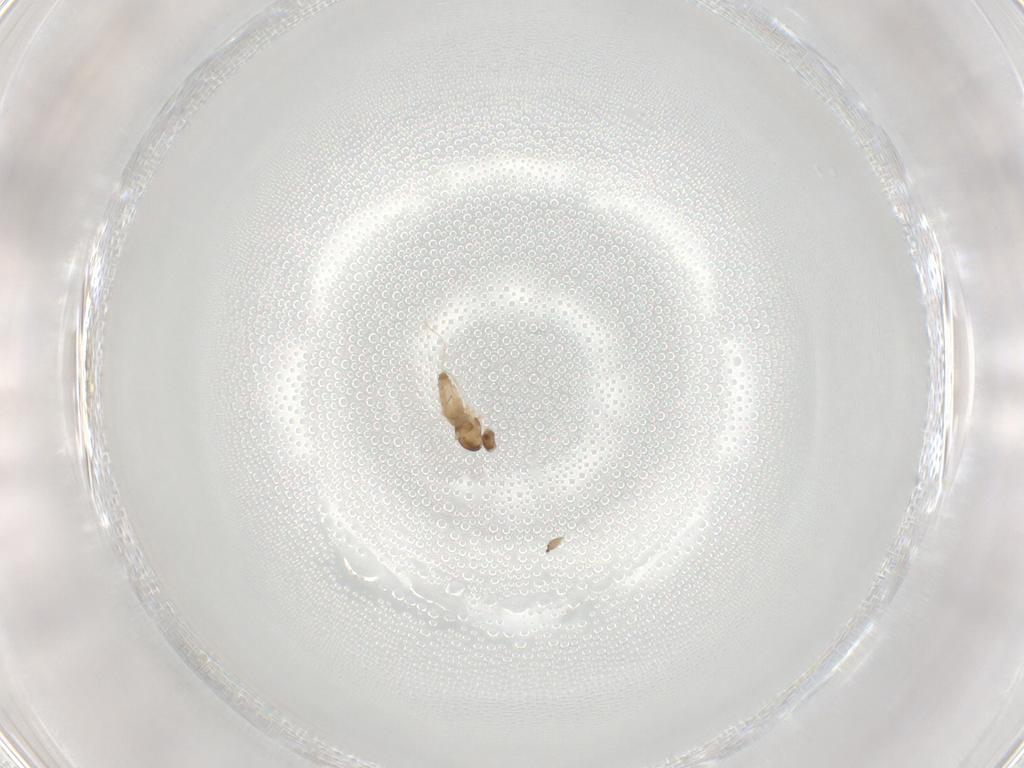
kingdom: Animalia
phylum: Arthropoda
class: Insecta
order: Diptera
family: Cecidomyiidae
